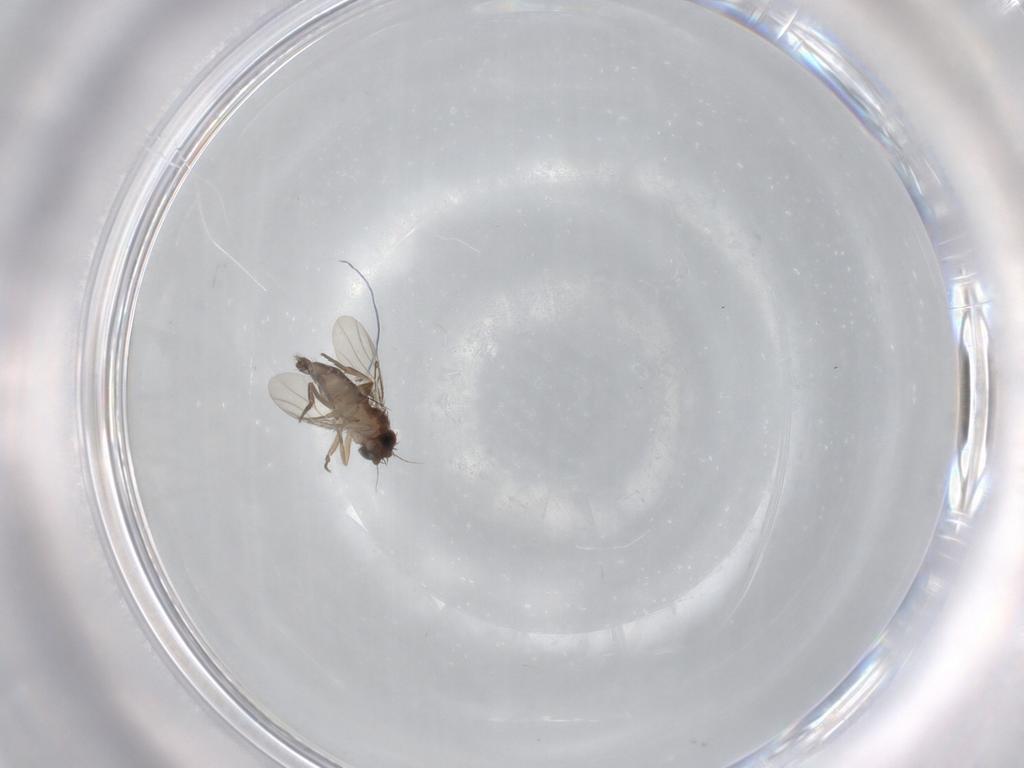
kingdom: Animalia
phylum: Arthropoda
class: Insecta
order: Diptera
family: Phoridae
